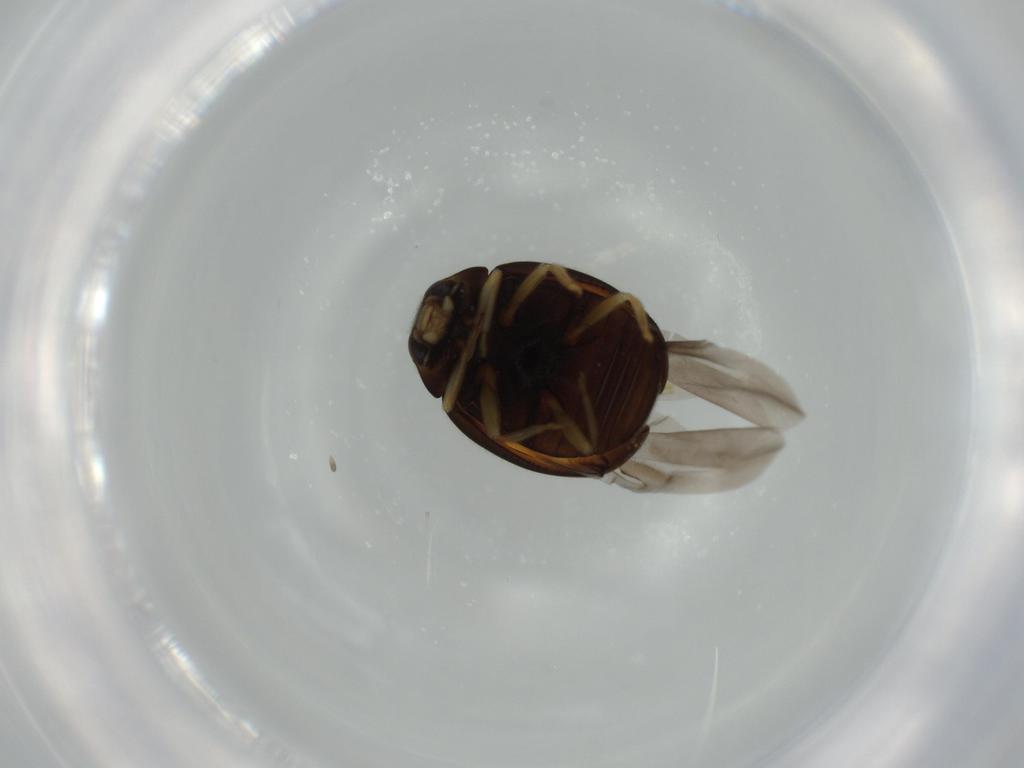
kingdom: Animalia
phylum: Arthropoda
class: Insecta
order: Coleoptera
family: Coccinellidae
